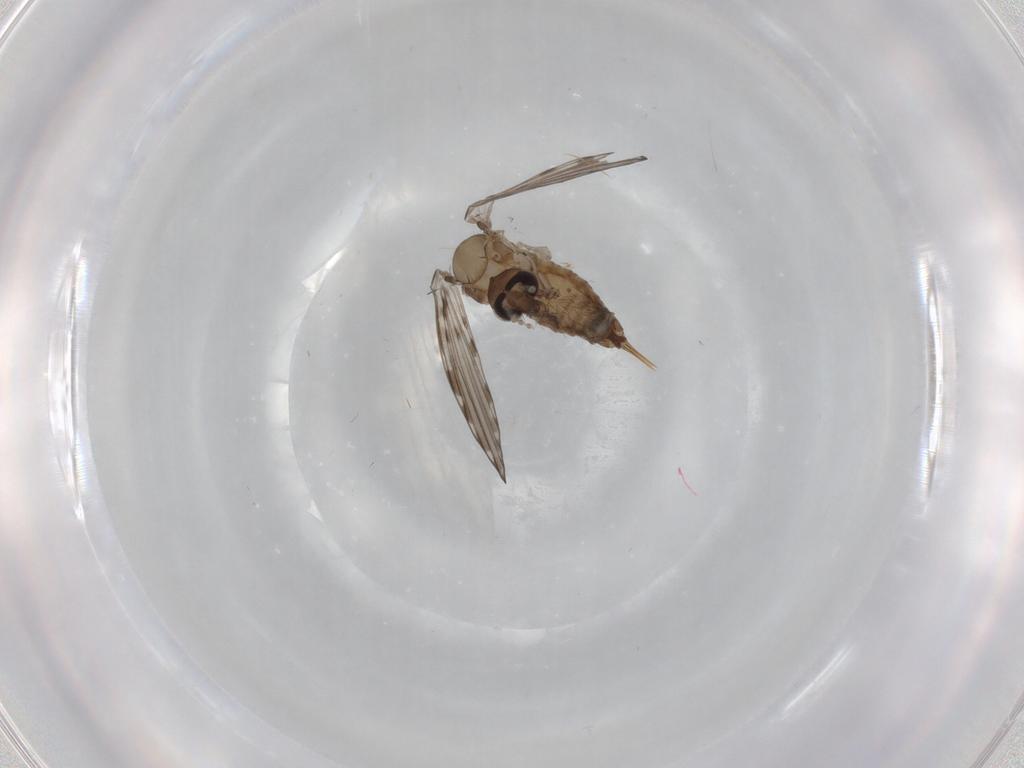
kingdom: Animalia
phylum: Arthropoda
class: Insecta
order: Diptera
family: Psychodidae
